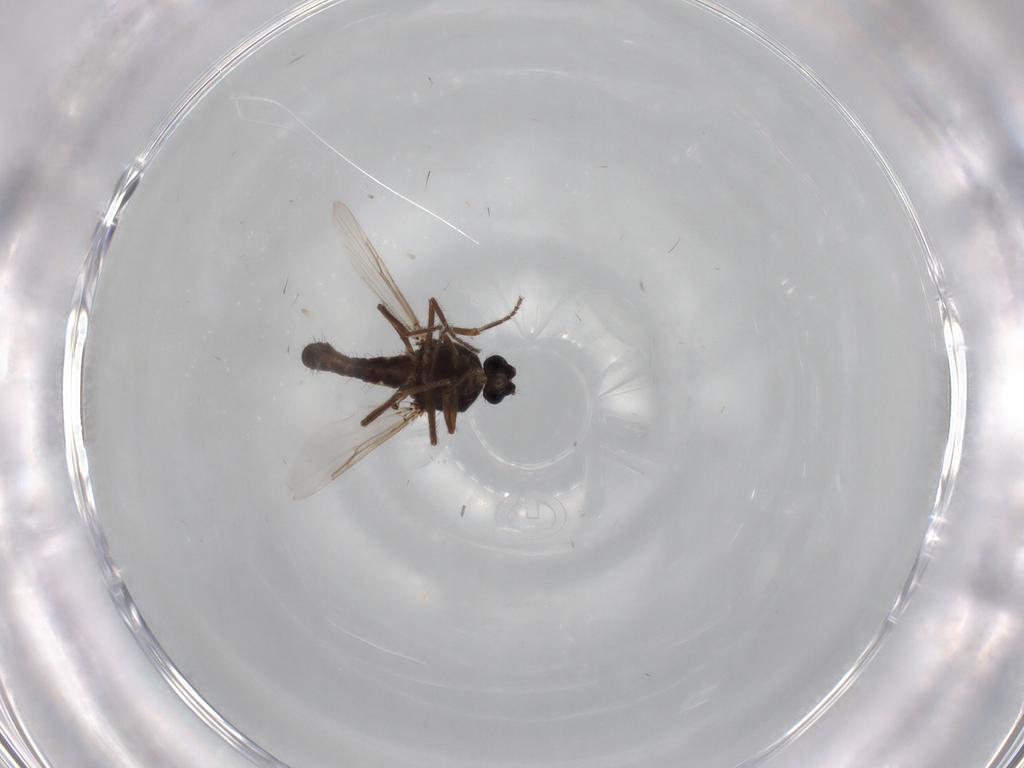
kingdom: Animalia
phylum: Arthropoda
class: Insecta
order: Diptera
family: Ceratopogonidae
